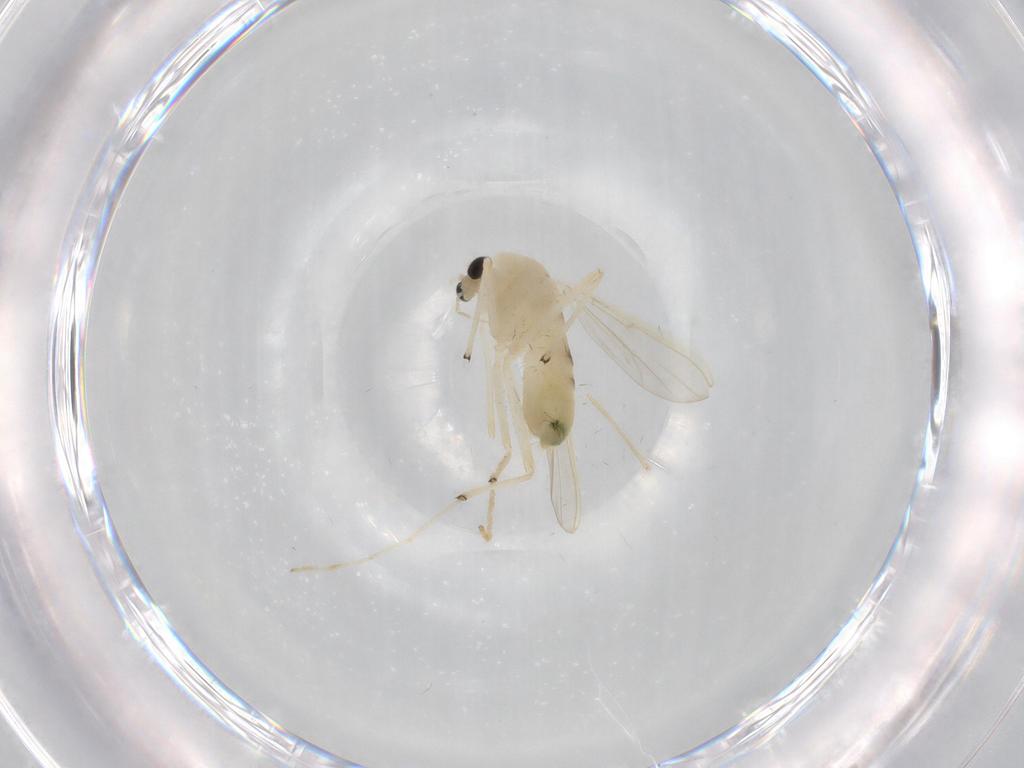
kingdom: Animalia
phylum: Arthropoda
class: Insecta
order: Diptera
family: Chironomidae
